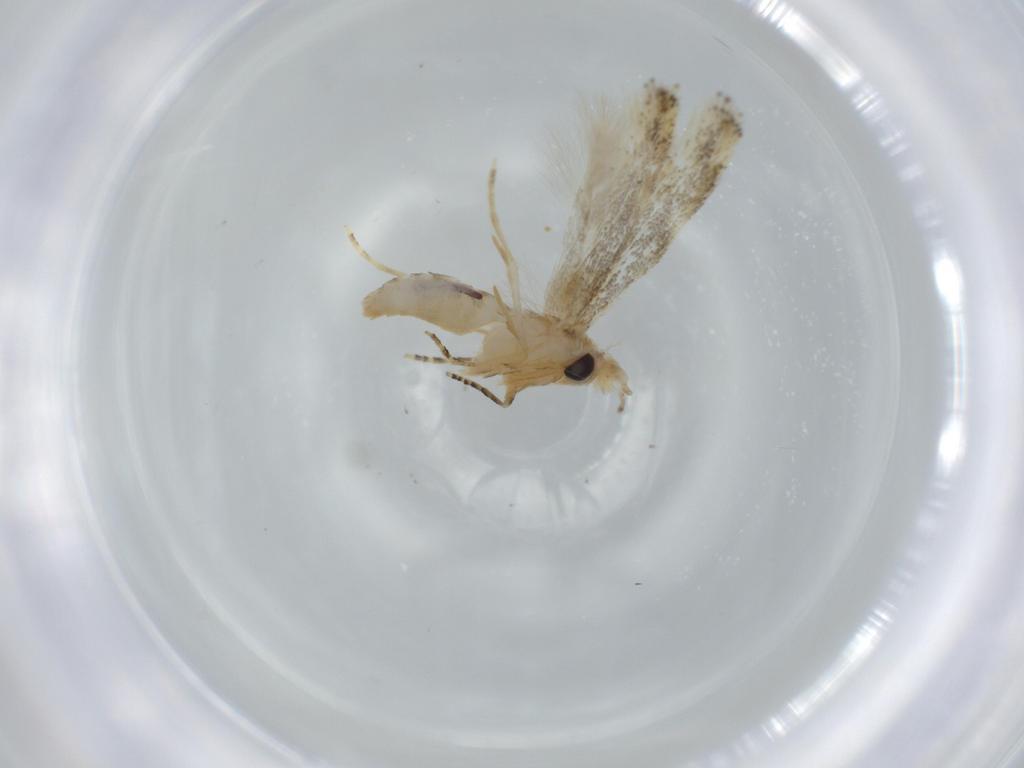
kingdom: Animalia
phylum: Arthropoda
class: Insecta
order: Lepidoptera
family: Bucculatricidae
